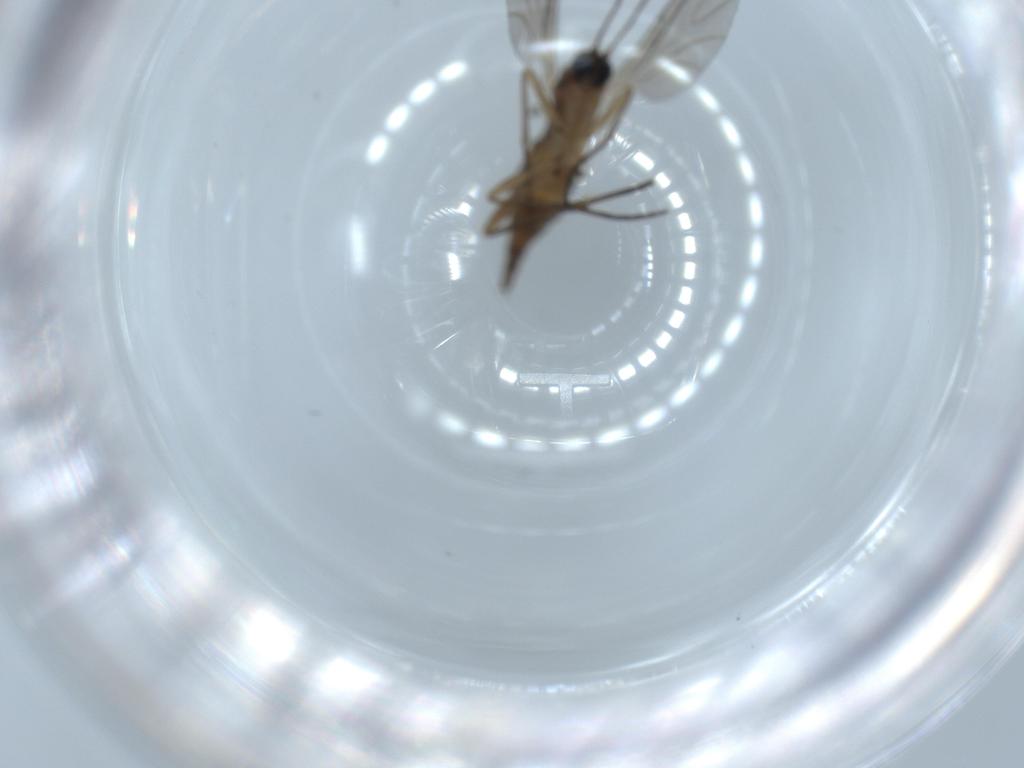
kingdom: Animalia
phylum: Arthropoda
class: Insecta
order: Diptera
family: Sciaridae
